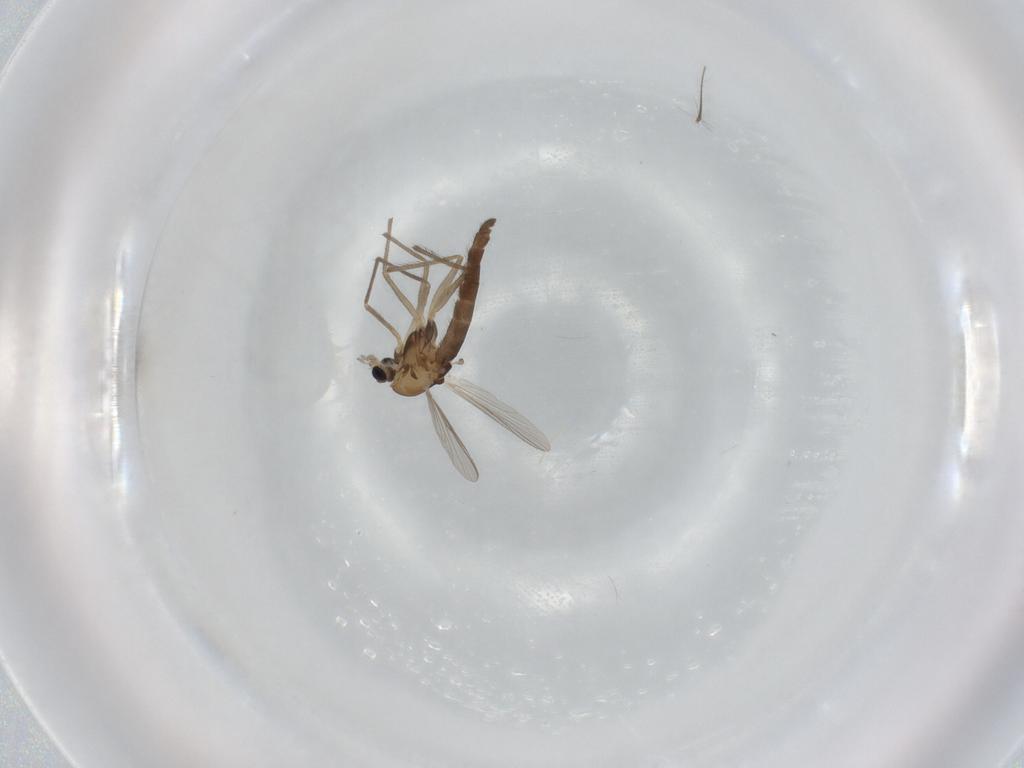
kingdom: Animalia
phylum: Arthropoda
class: Insecta
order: Diptera
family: Chironomidae
